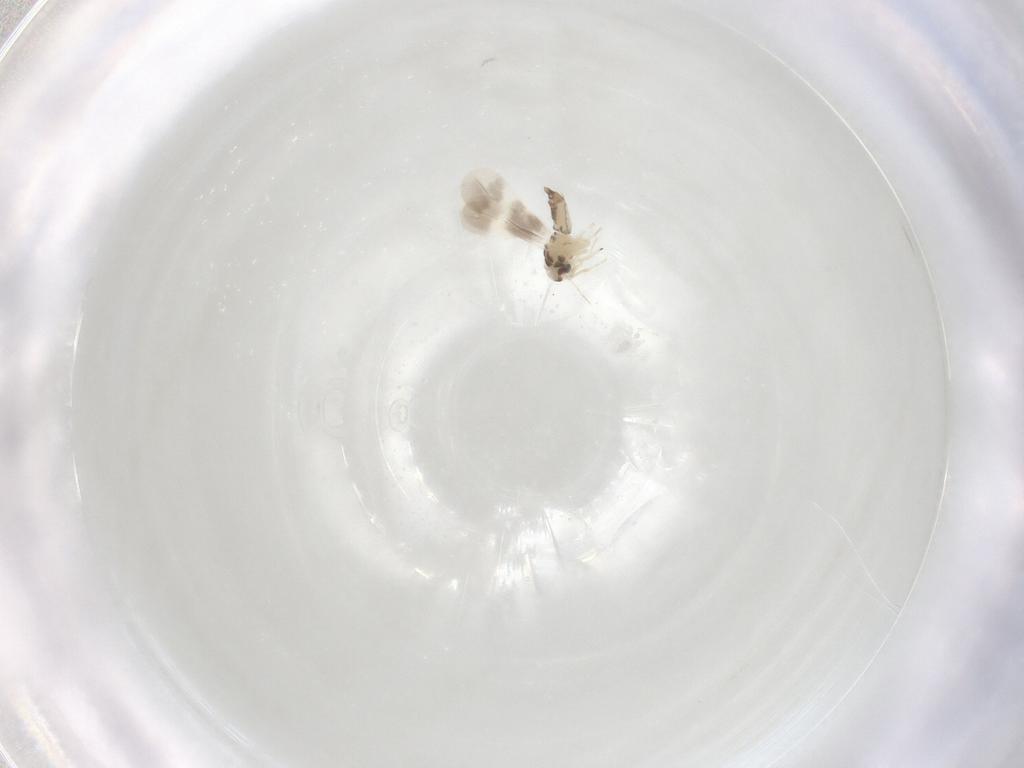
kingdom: Animalia
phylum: Arthropoda
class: Insecta
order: Hemiptera
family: Aleyrodidae
